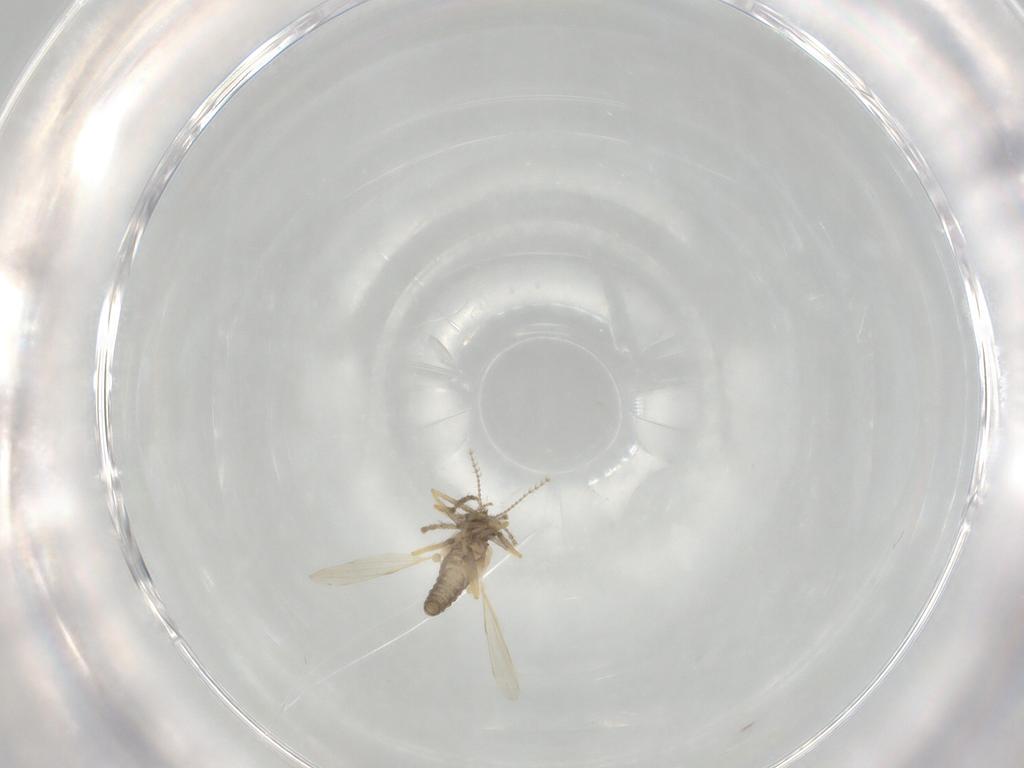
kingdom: Animalia
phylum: Arthropoda
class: Insecta
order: Diptera
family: Ceratopogonidae
